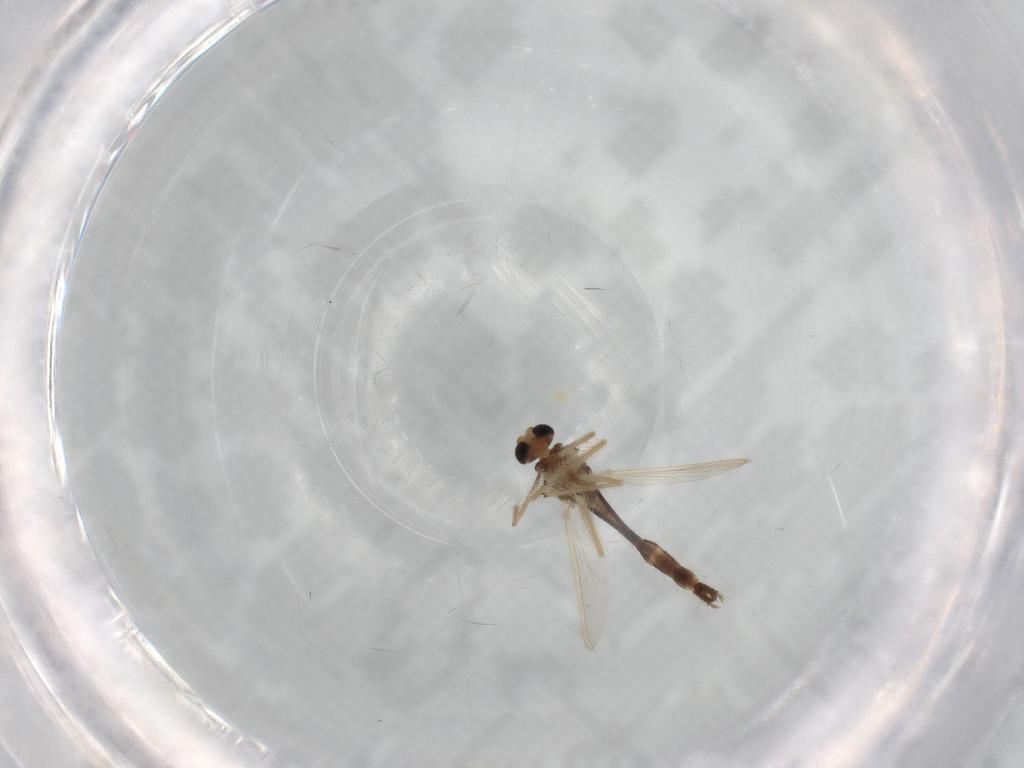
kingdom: Animalia
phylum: Arthropoda
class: Insecta
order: Diptera
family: Chironomidae
